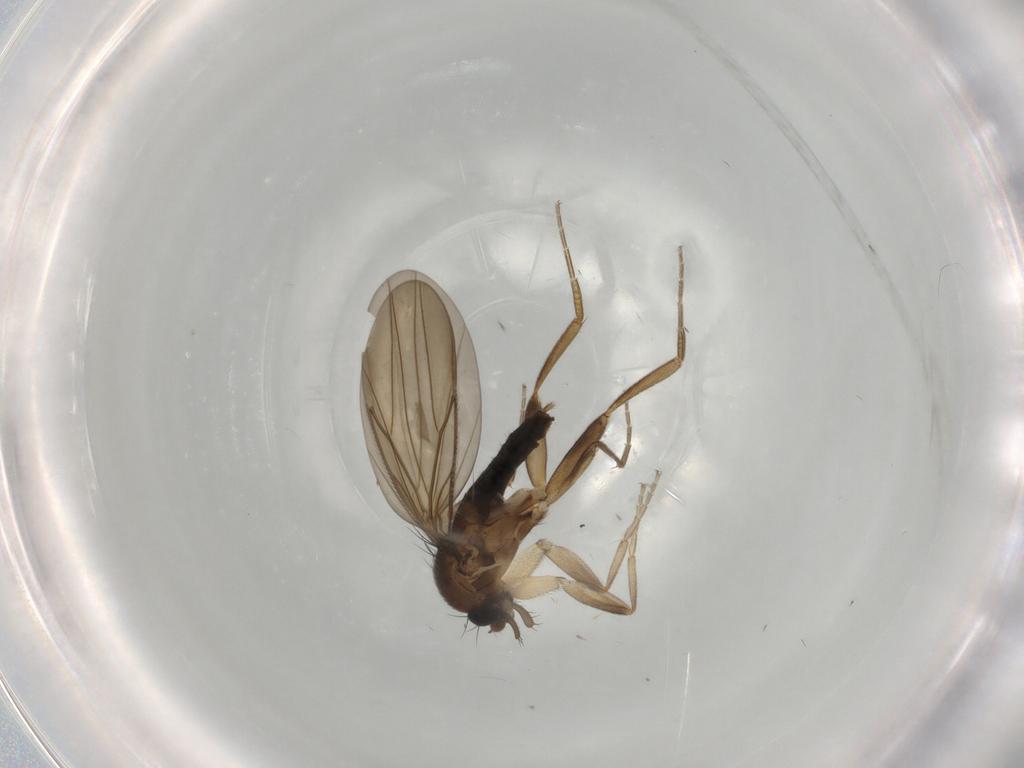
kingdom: Animalia
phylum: Arthropoda
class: Insecta
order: Diptera
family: Phoridae
